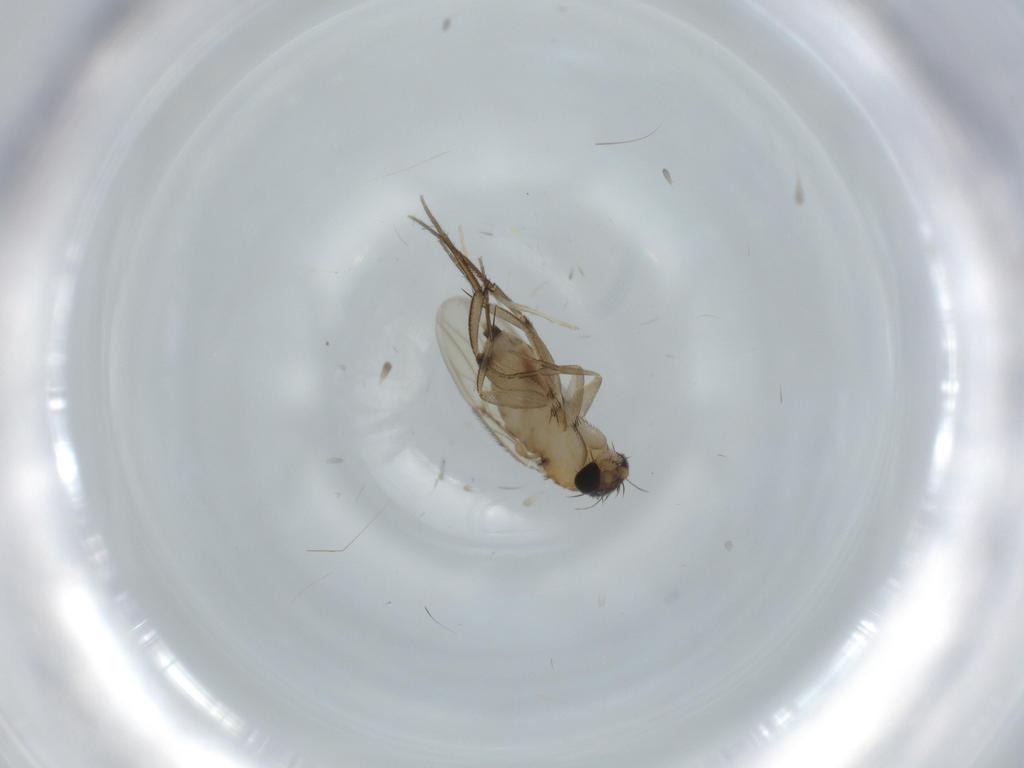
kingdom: Animalia
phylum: Arthropoda
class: Insecta
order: Diptera
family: Phoridae
